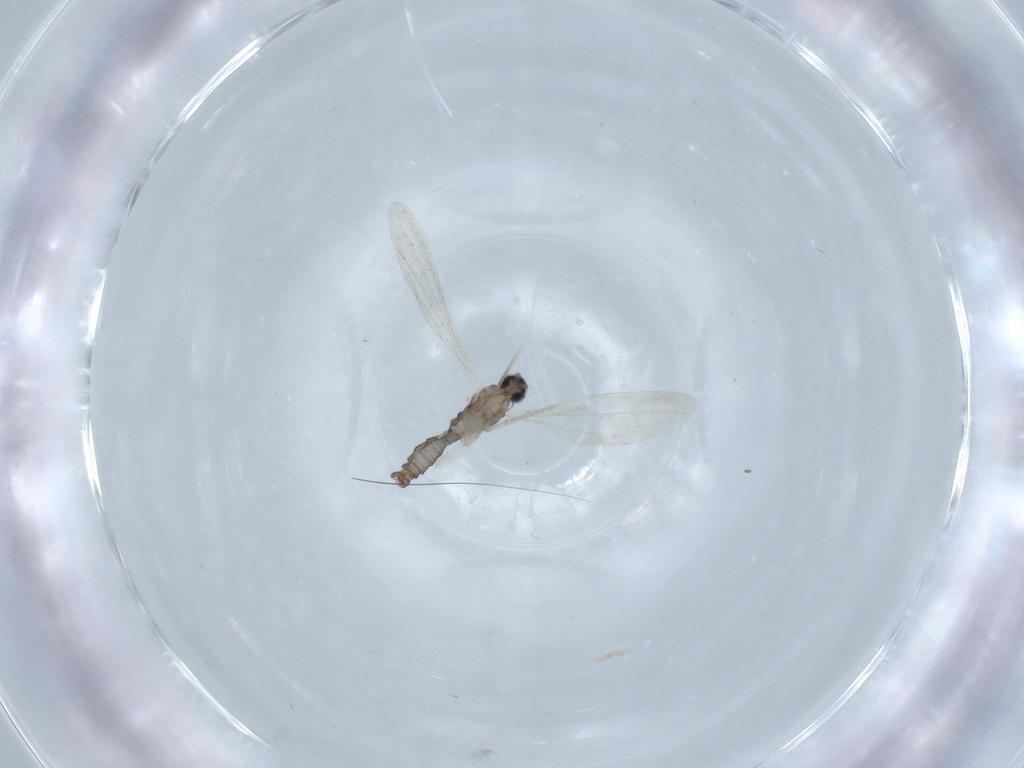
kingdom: Animalia
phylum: Arthropoda
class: Insecta
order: Diptera
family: Cecidomyiidae
